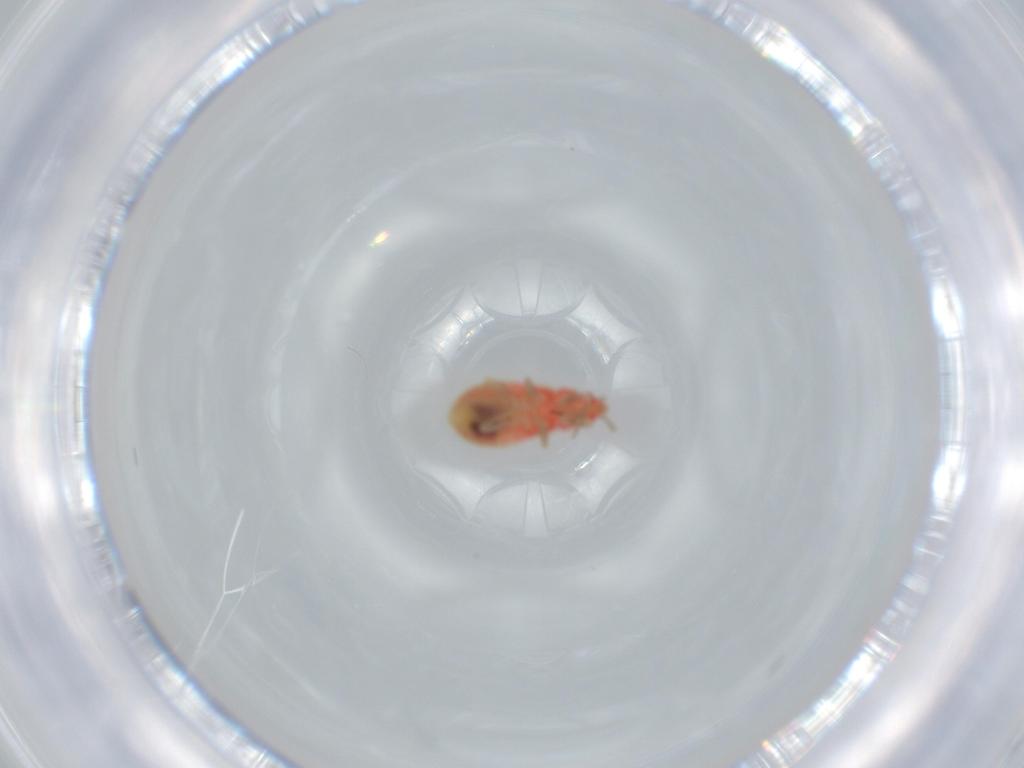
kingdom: Animalia
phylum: Arthropoda
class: Insecta
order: Hemiptera
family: Anthocoridae
